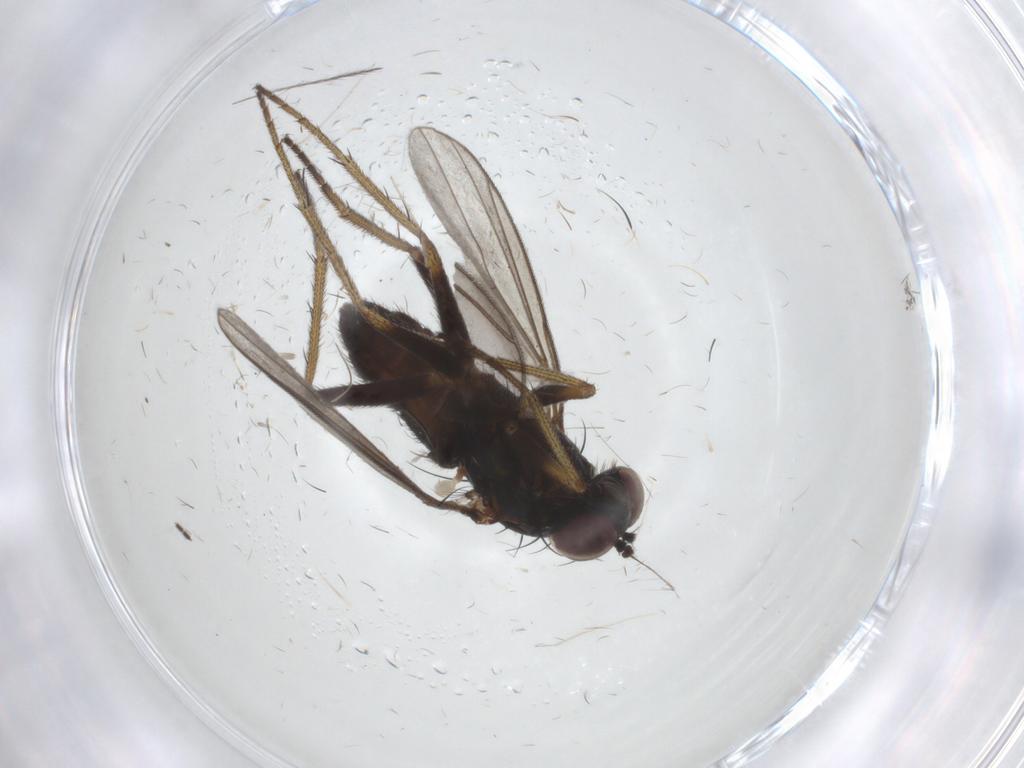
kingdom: Animalia
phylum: Arthropoda
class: Insecta
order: Diptera
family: Dolichopodidae
